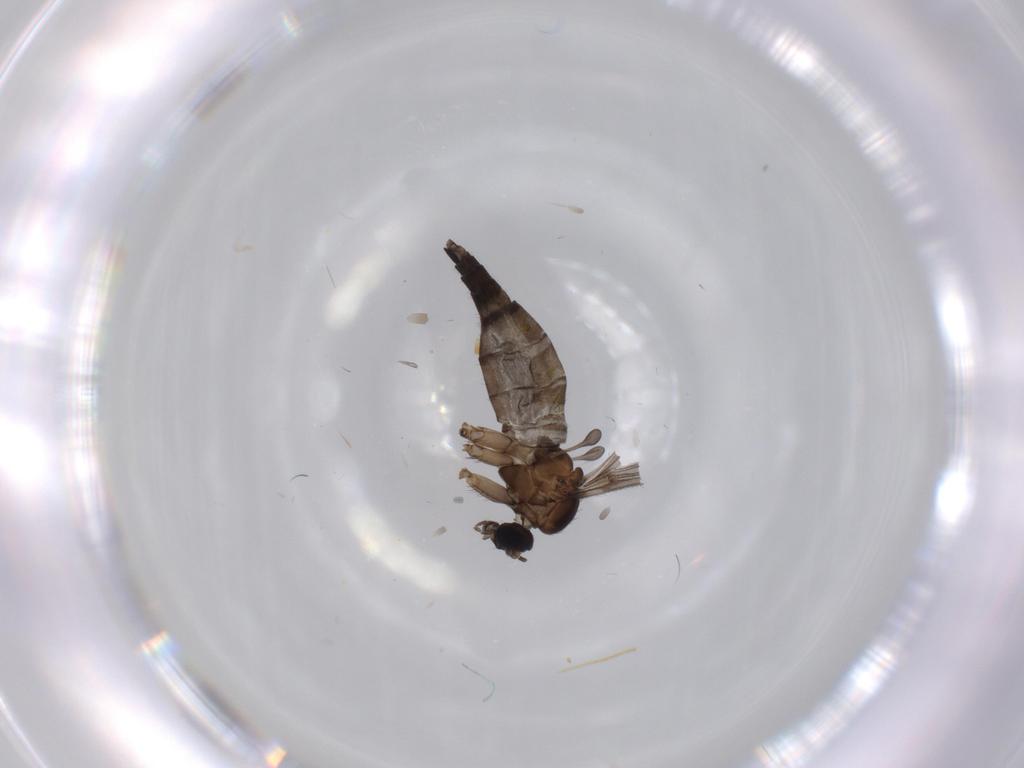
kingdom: Animalia
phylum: Arthropoda
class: Insecta
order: Diptera
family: Sciaridae
